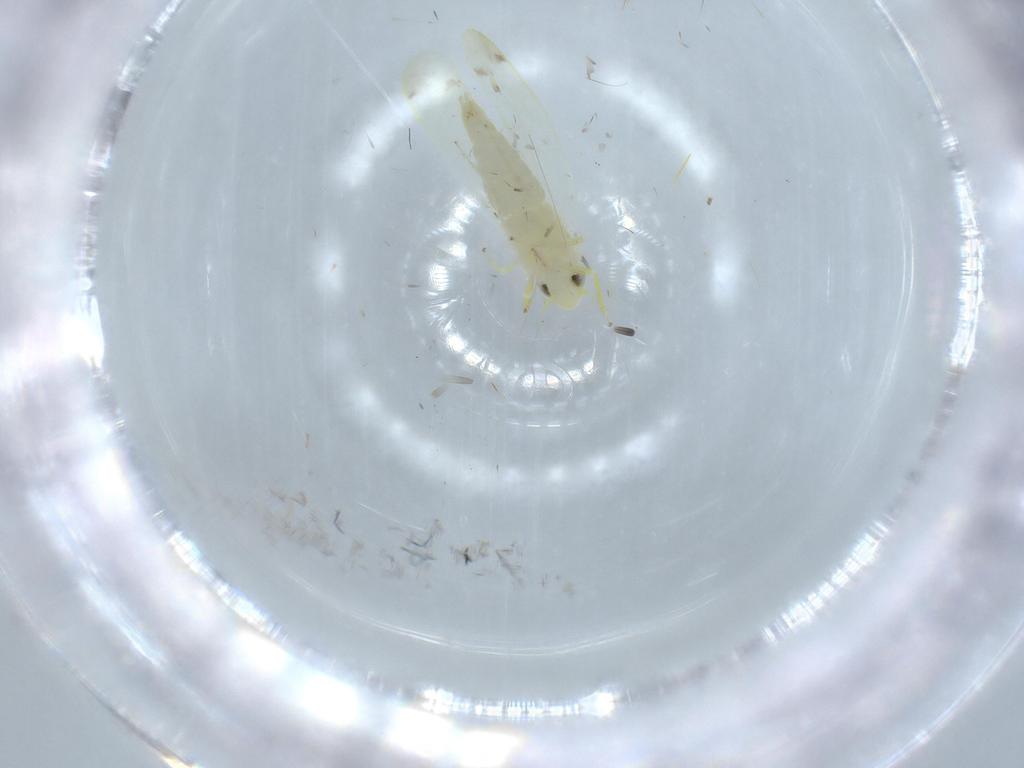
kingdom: Animalia
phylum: Arthropoda
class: Insecta
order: Hemiptera
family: Cicadellidae
